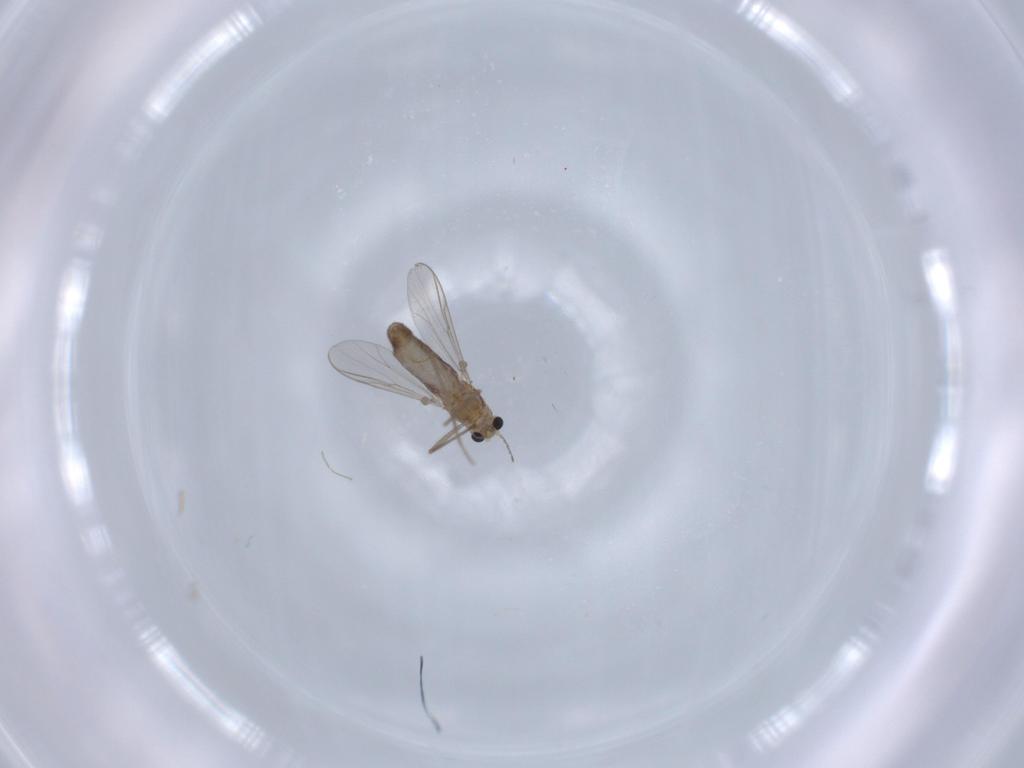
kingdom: Animalia
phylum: Arthropoda
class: Insecta
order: Diptera
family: Chironomidae
